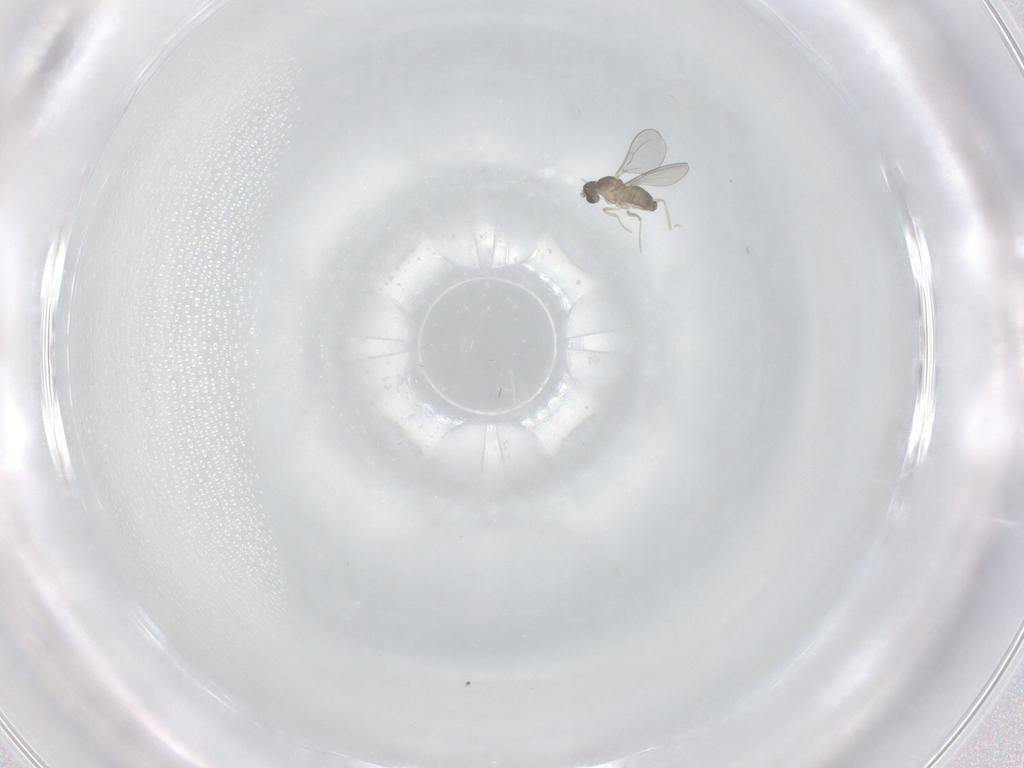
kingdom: Animalia
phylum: Arthropoda
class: Insecta
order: Diptera
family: Cecidomyiidae
